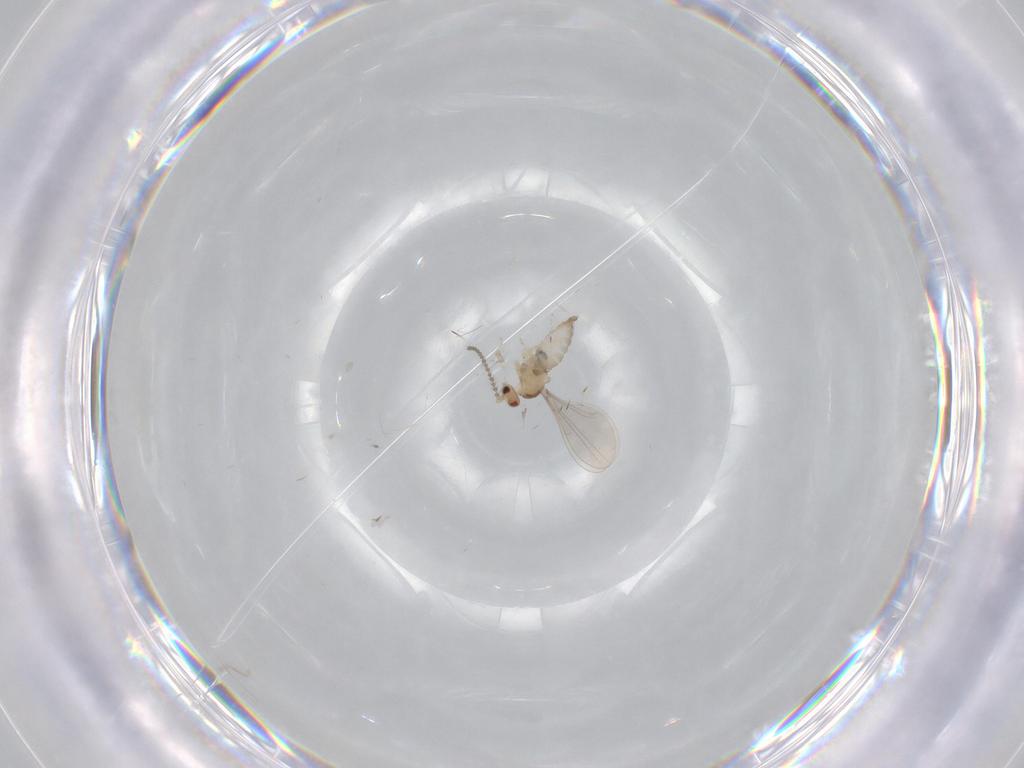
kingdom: Animalia
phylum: Arthropoda
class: Insecta
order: Diptera
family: Cecidomyiidae
